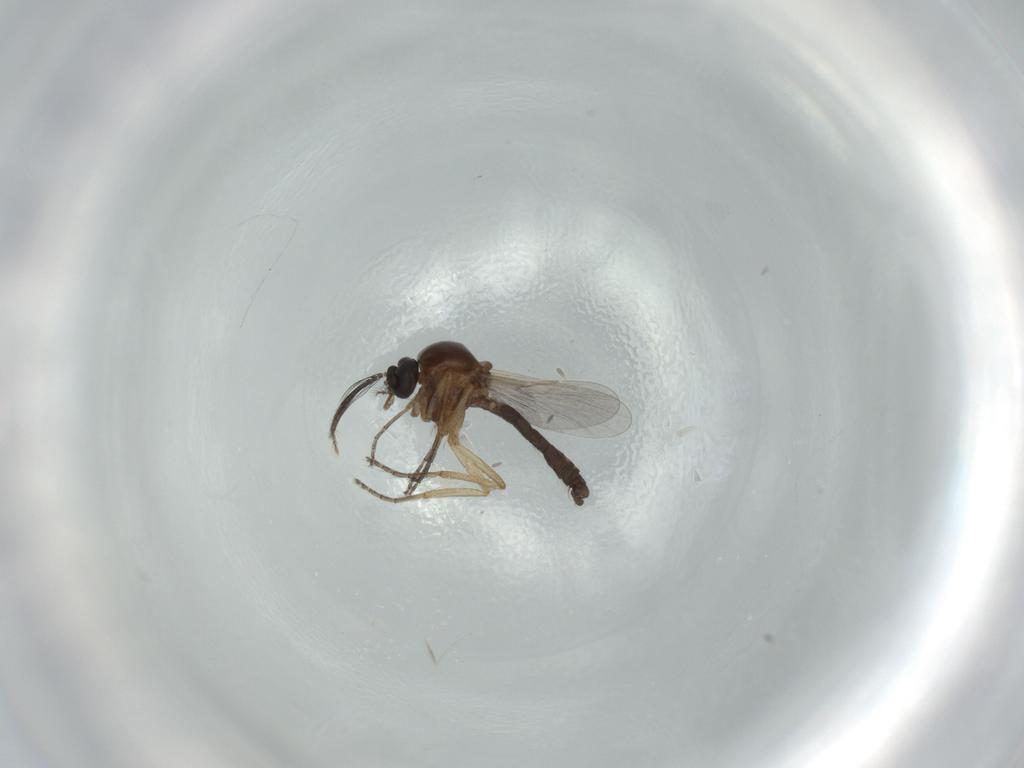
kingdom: Animalia
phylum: Arthropoda
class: Insecta
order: Diptera
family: Ceratopogonidae
